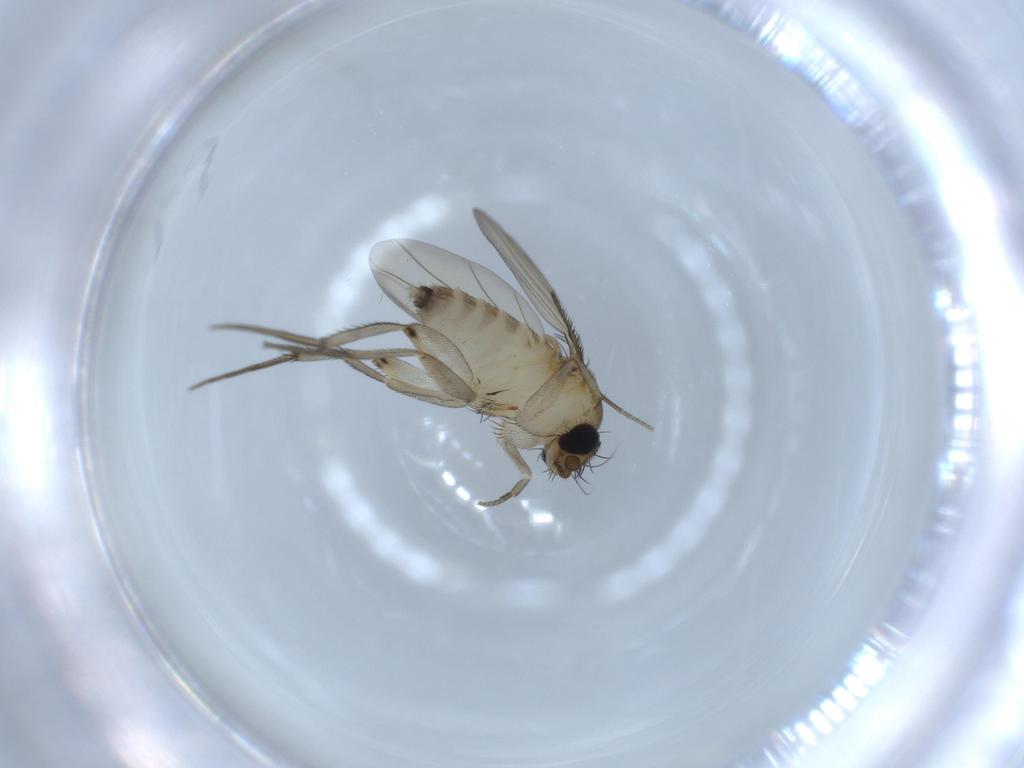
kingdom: Animalia
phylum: Arthropoda
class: Insecta
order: Diptera
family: Phoridae
